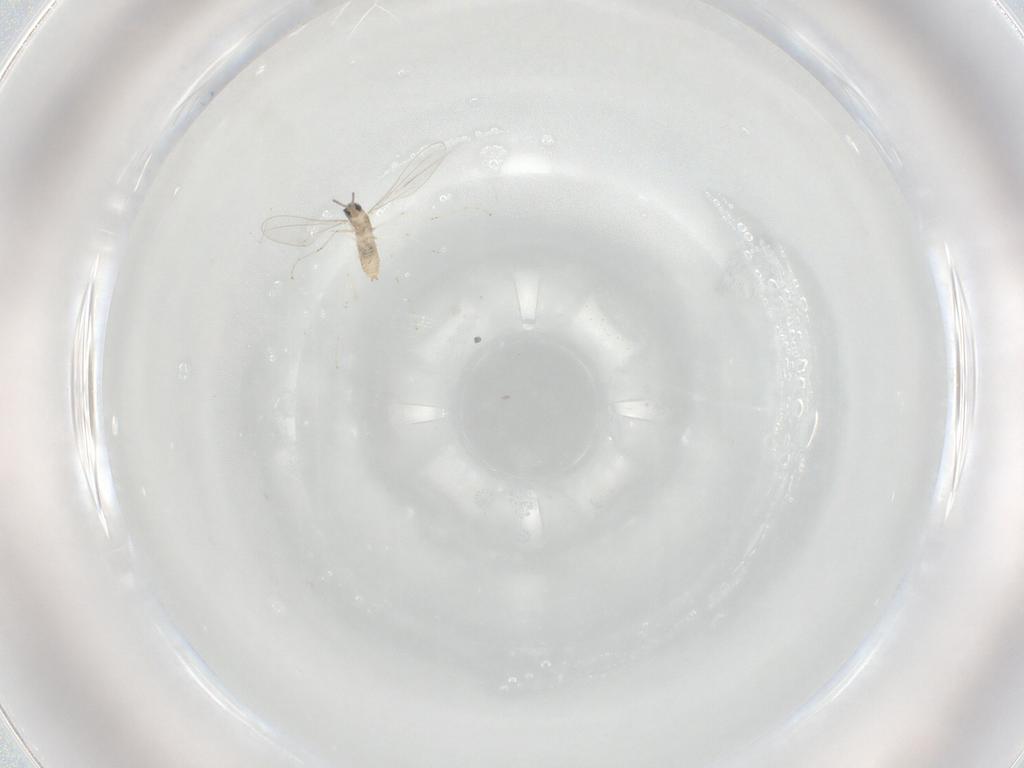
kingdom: Animalia
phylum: Arthropoda
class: Insecta
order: Diptera
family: Cecidomyiidae
